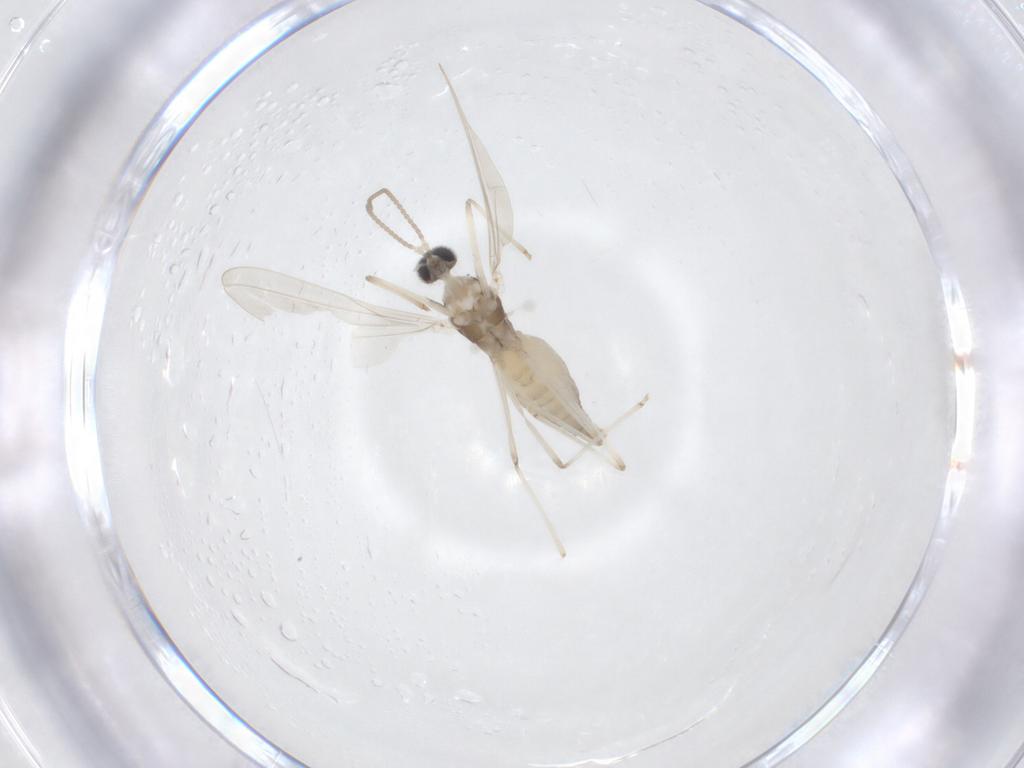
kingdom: Animalia
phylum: Arthropoda
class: Insecta
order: Diptera
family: Cecidomyiidae
